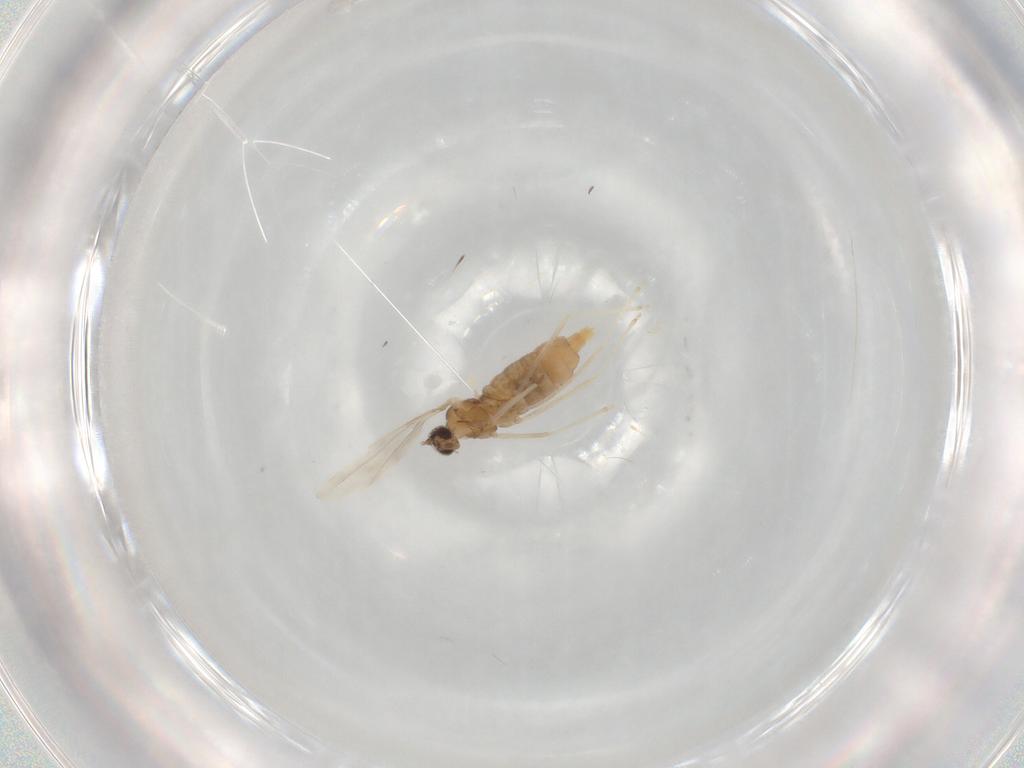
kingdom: Animalia
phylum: Arthropoda
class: Insecta
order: Diptera
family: Cecidomyiidae
